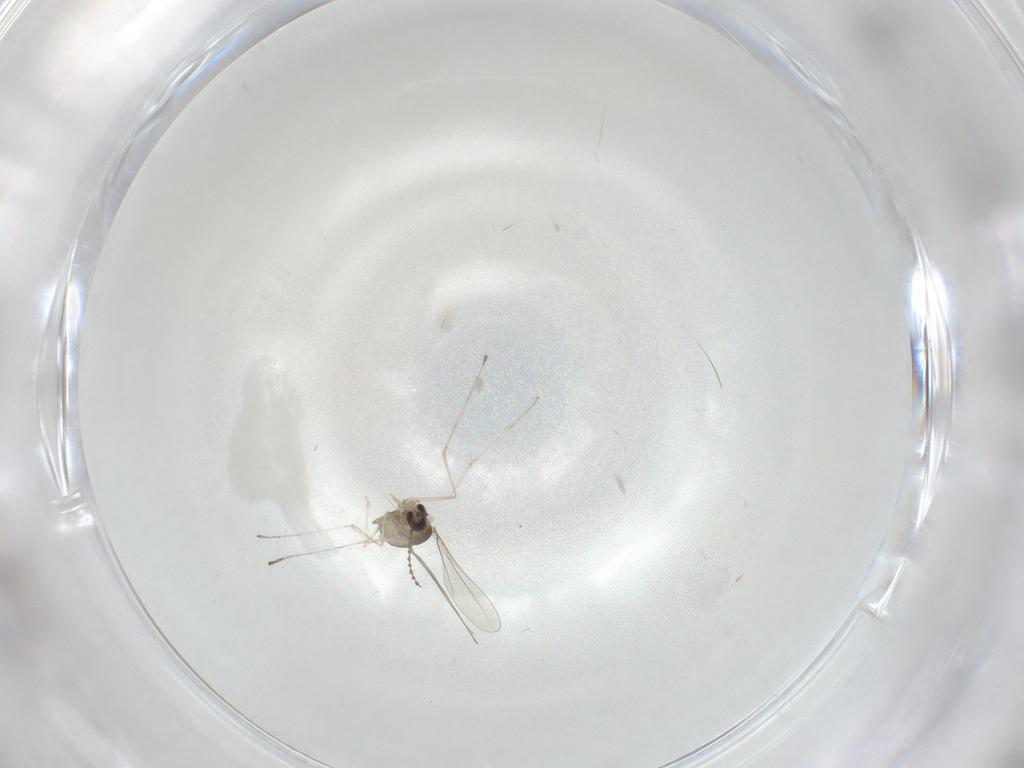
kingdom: Animalia
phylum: Arthropoda
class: Insecta
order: Diptera
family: Cecidomyiidae
